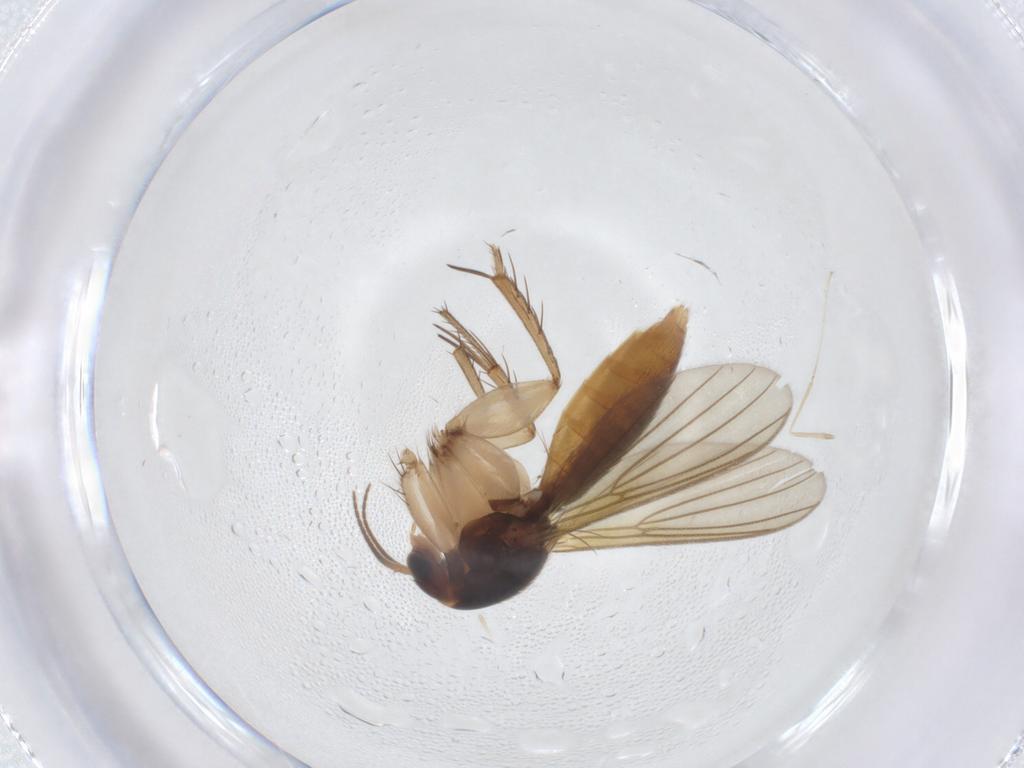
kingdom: Animalia
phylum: Arthropoda
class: Insecta
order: Diptera
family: Mycetophilidae
